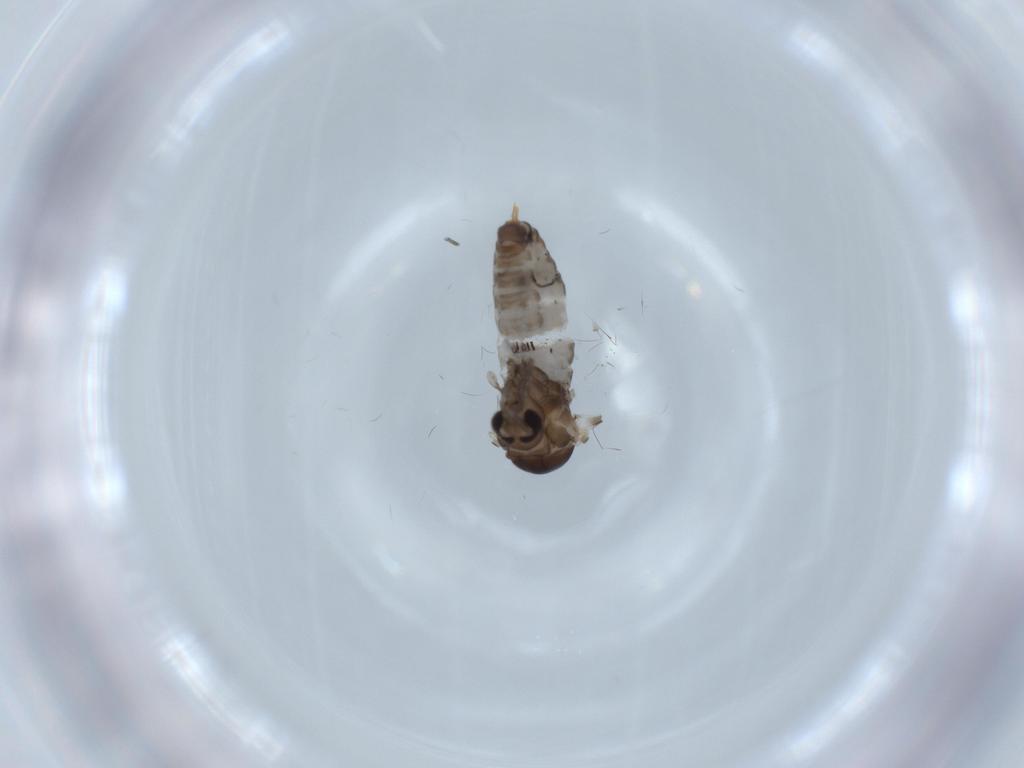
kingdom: Animalia
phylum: Arthropoda
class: Insecta
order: Diptera
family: Psychodidae
